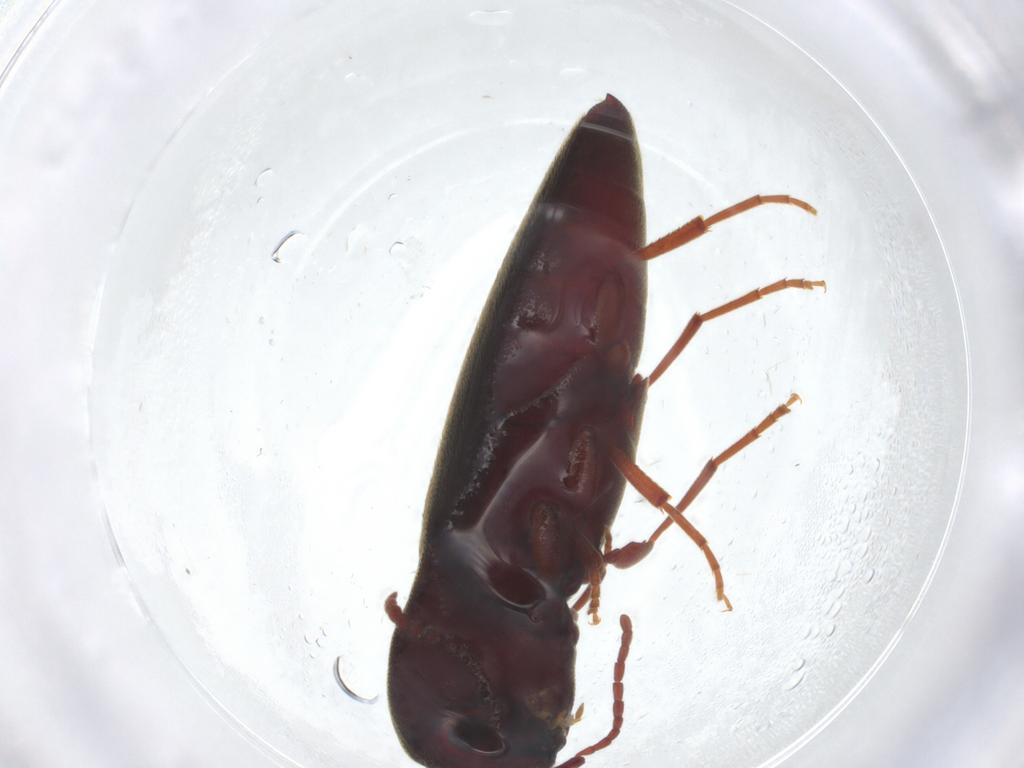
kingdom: Animalia
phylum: Arthropoda
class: Insecta
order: Coleoptera
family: Eucnemidae
